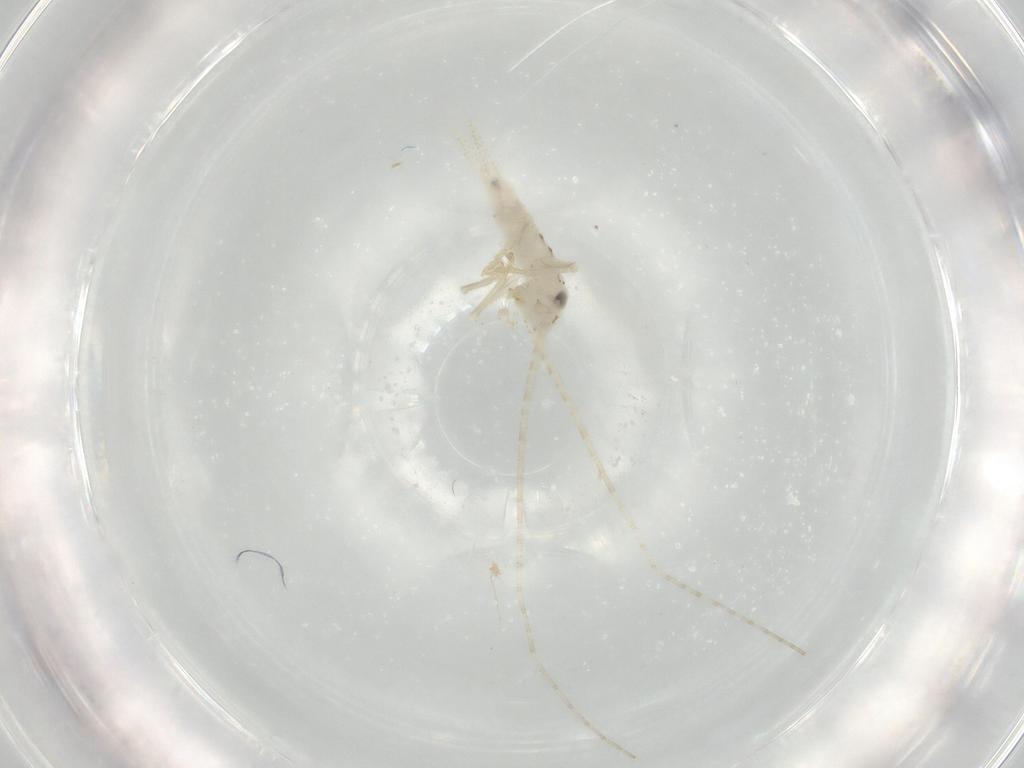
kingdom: Animalia
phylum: Arthropoda
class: Insecta
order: Orthoptera
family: Trigonidiidae
